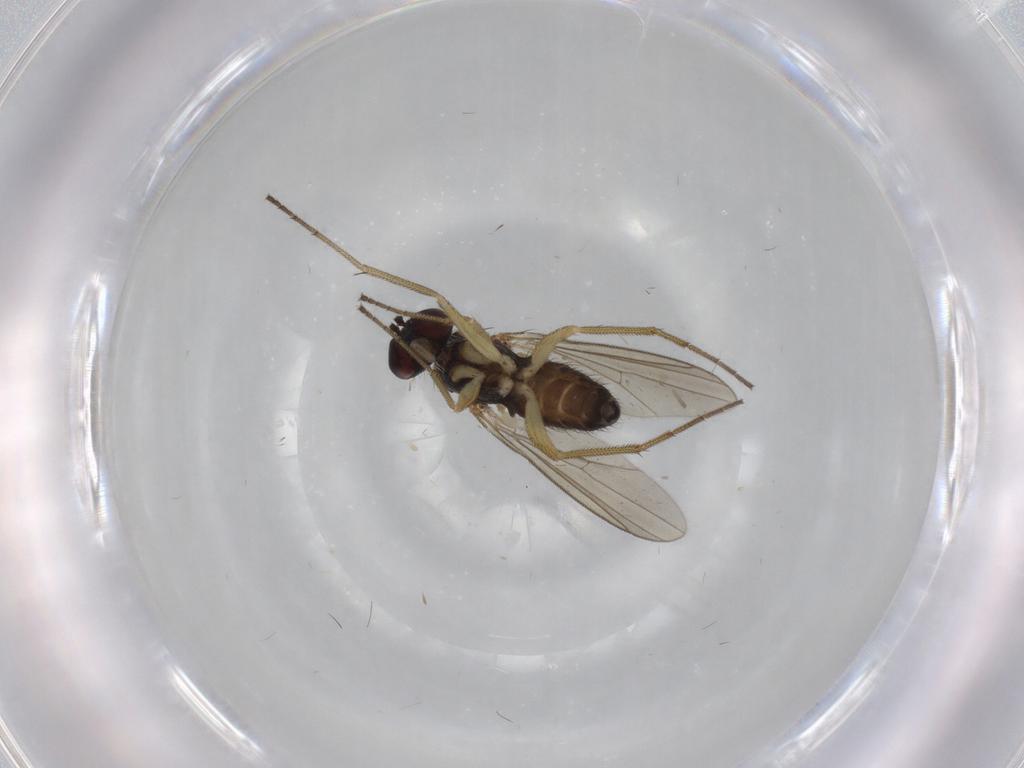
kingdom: Animalia
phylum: Arthropoda
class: Insecta
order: Diptera
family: Dolichopodidae
